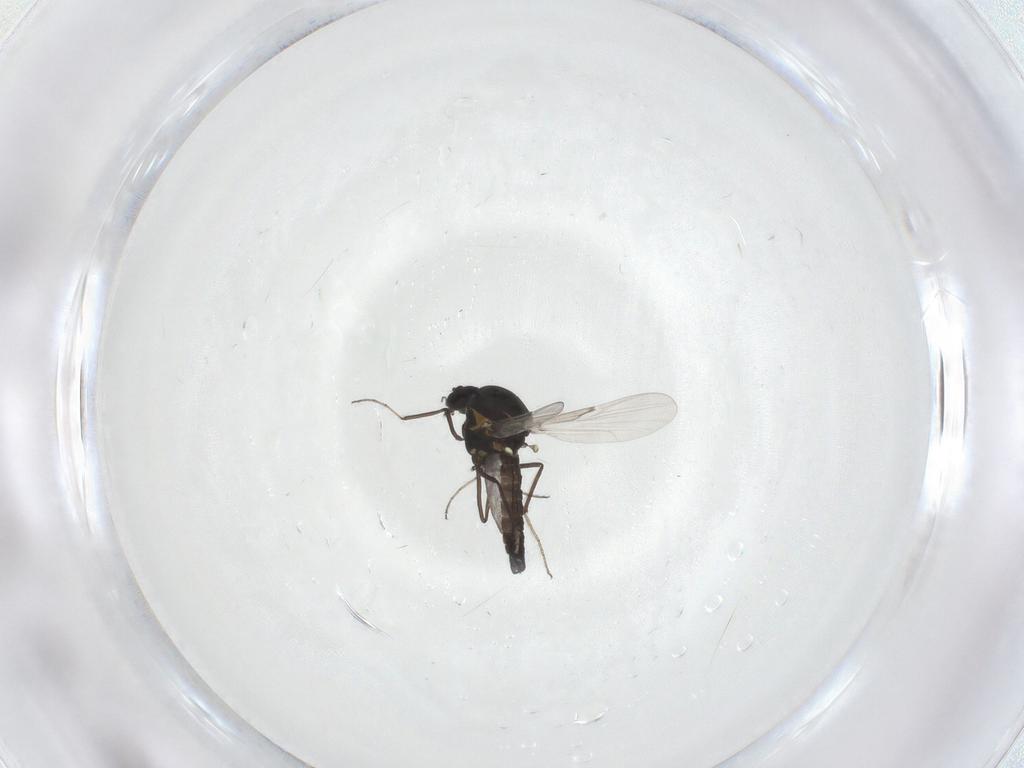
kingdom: Animalia
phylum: Arthropoda
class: Insecta
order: Diptera
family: Ceratopogonidae
